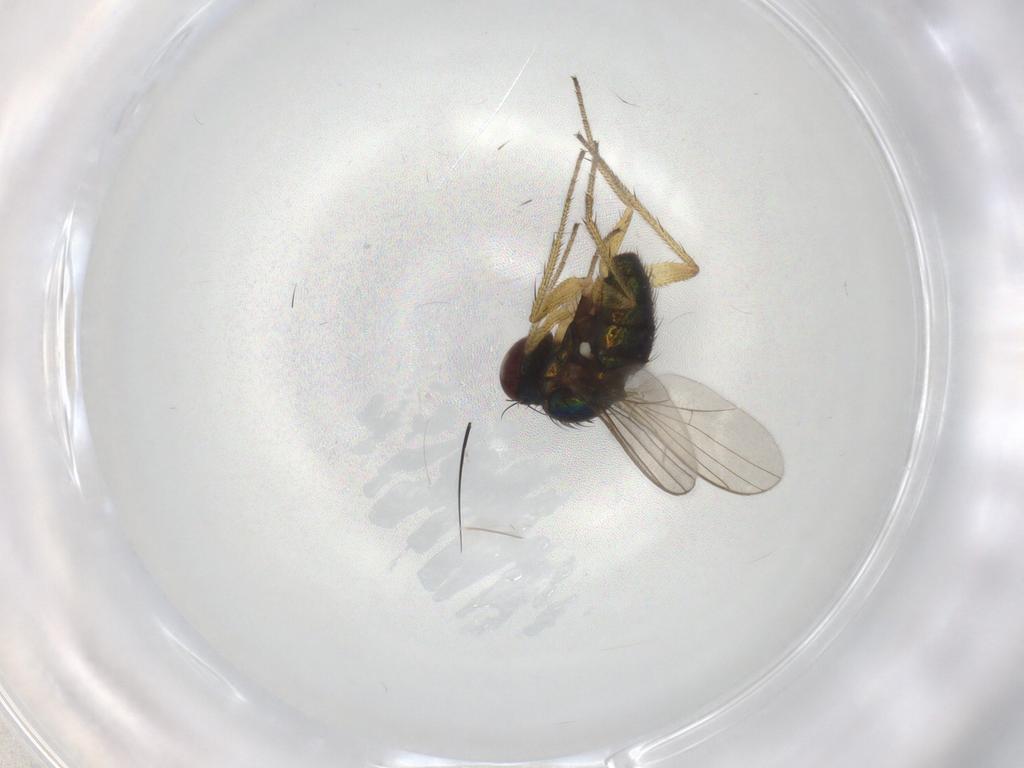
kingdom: Animalia
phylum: Arthropoda
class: Insecta
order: Diptera
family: Dolichopodidae
